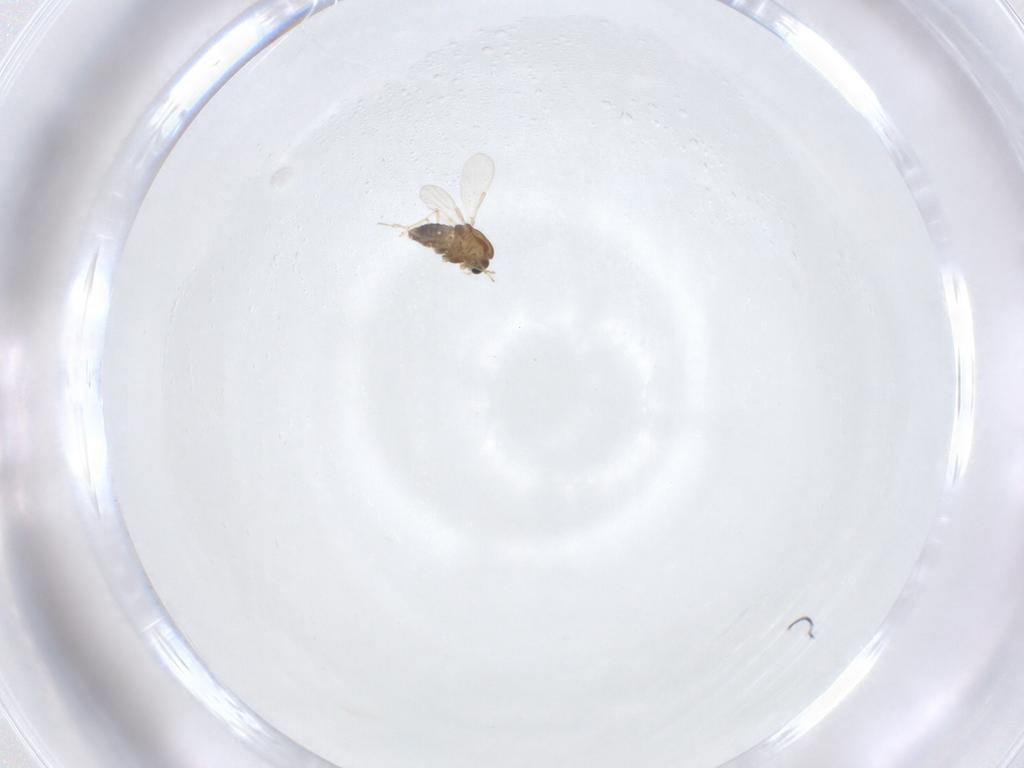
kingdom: Animalia
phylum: Arthropoda
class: Insecta
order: Diptera
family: Chironomidae
